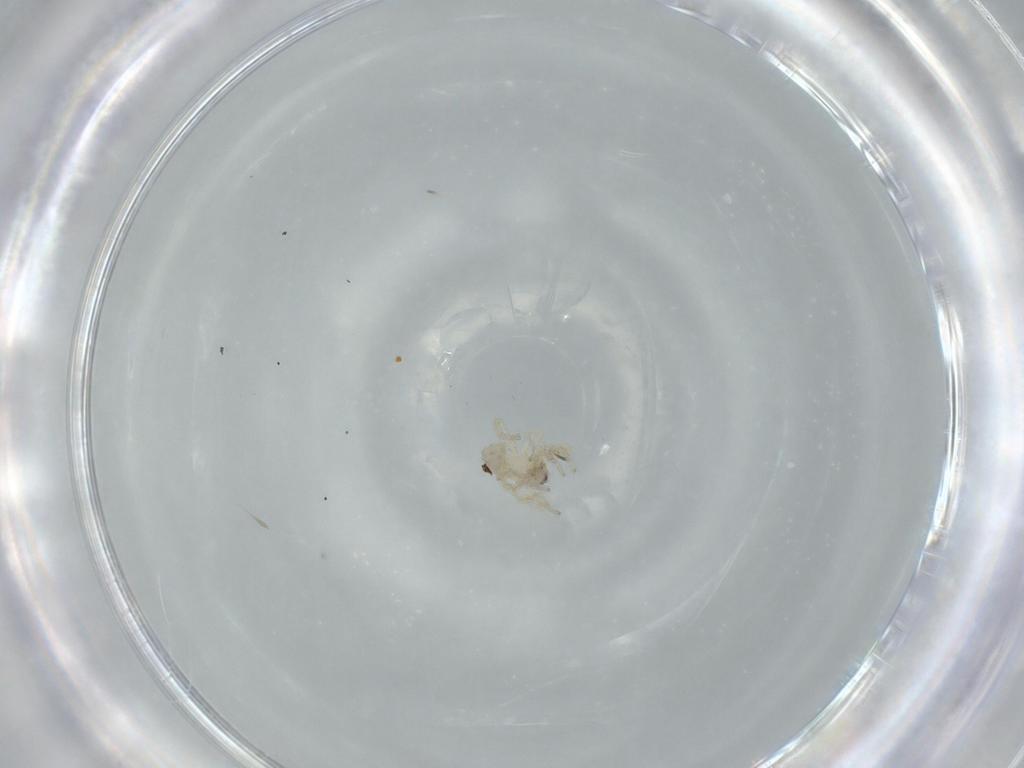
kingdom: Animalia
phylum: Arthropoda
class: Arachnida
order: Araneae
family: Oonopidae
